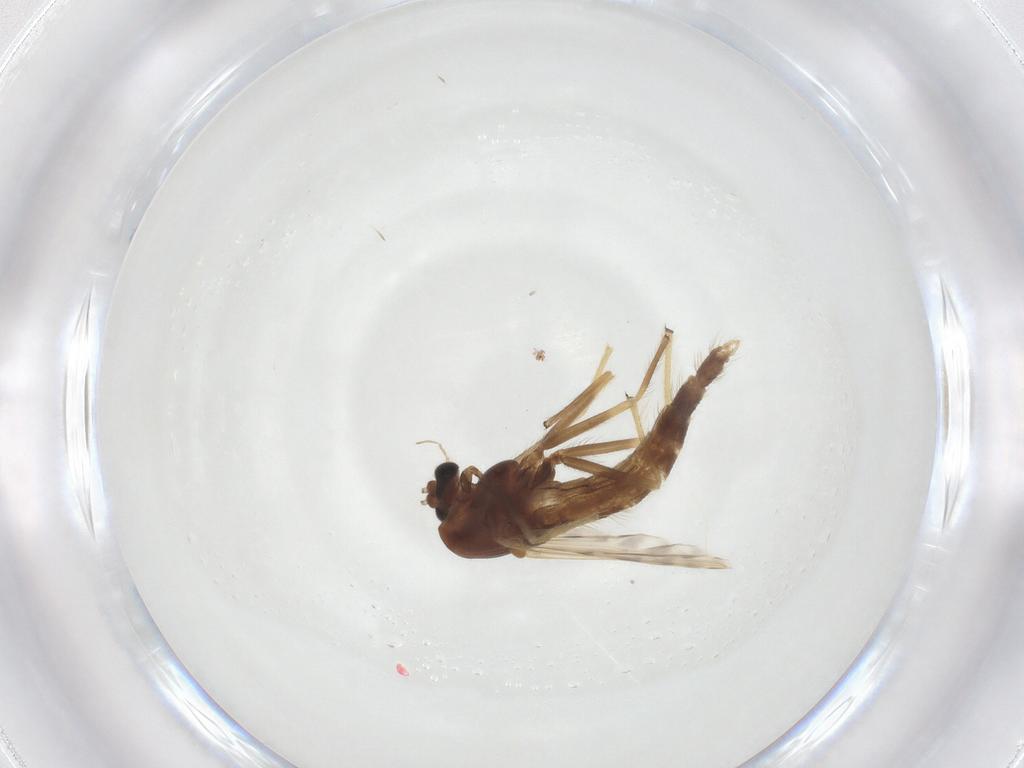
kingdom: Animalia
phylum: Arthropoda
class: Insecta
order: Diptera
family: Chironomidae
